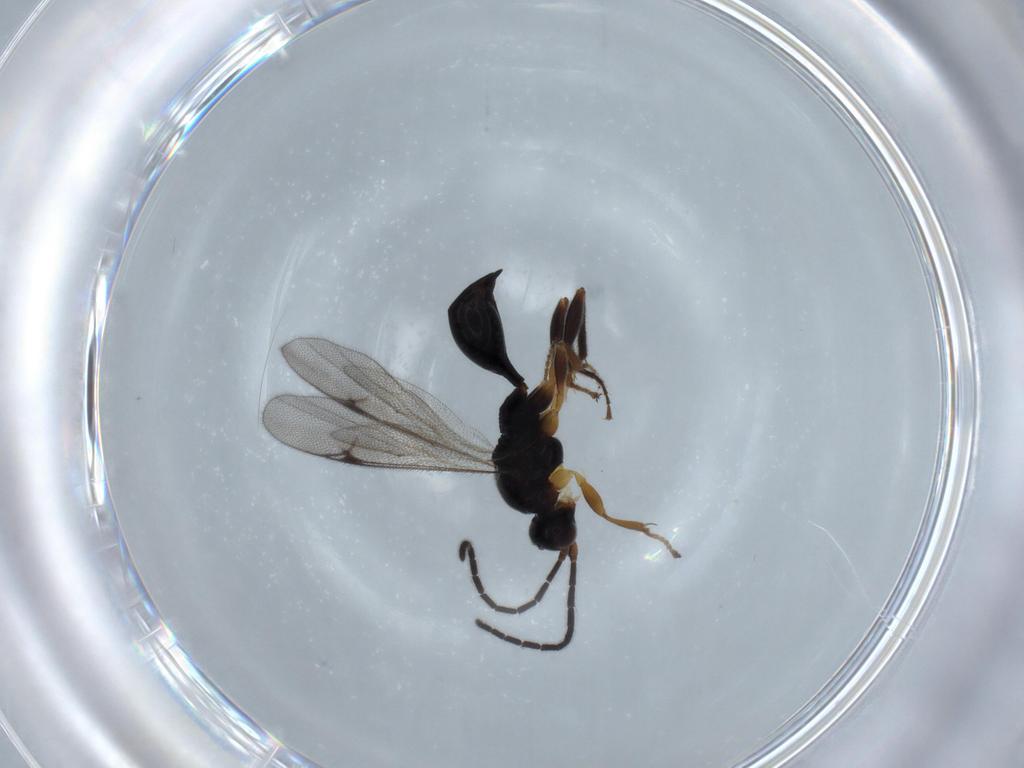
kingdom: Animalia
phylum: Arthropoda
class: Insecta
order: Hymenoptera
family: Proctotrupidae
